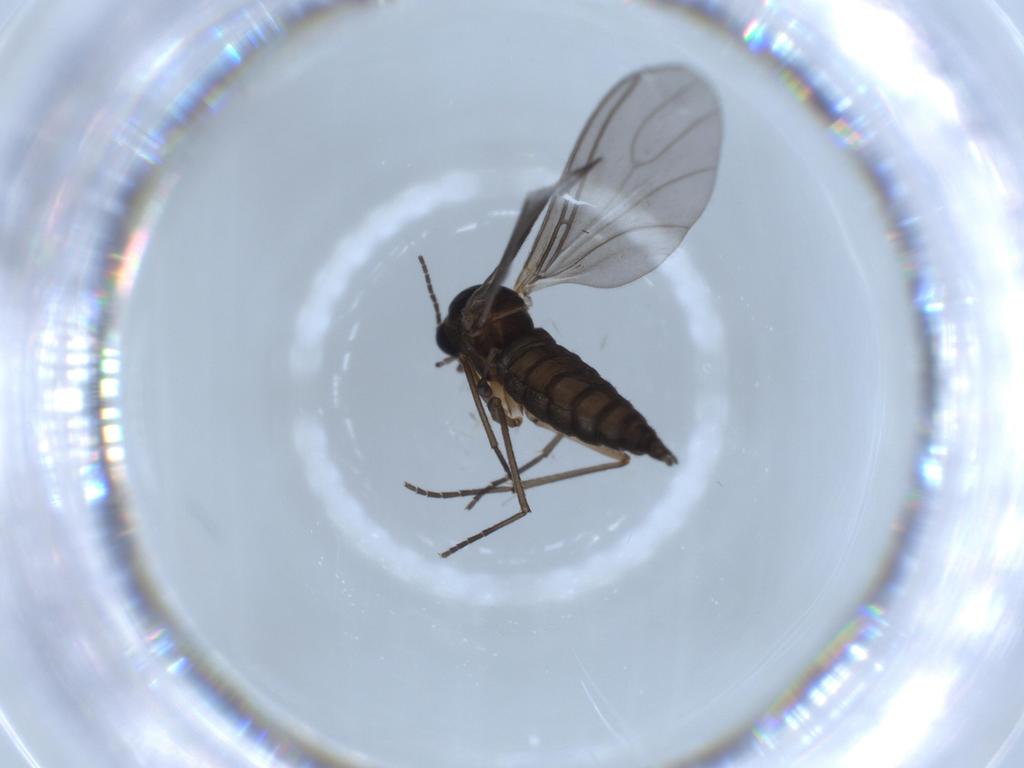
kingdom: Animalia
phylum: Arthropoda
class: Insecta
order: Diptera
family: Sciaridae
